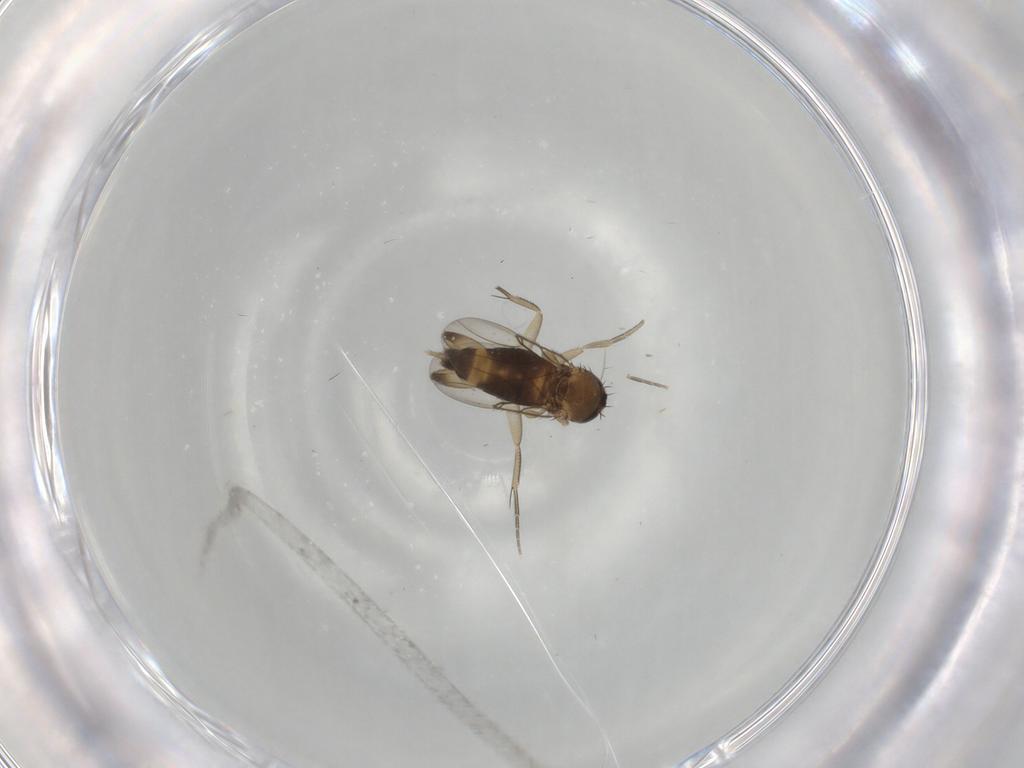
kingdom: Animalia
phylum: Arthropoda
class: Insecta
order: Diptera
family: Phoridae
